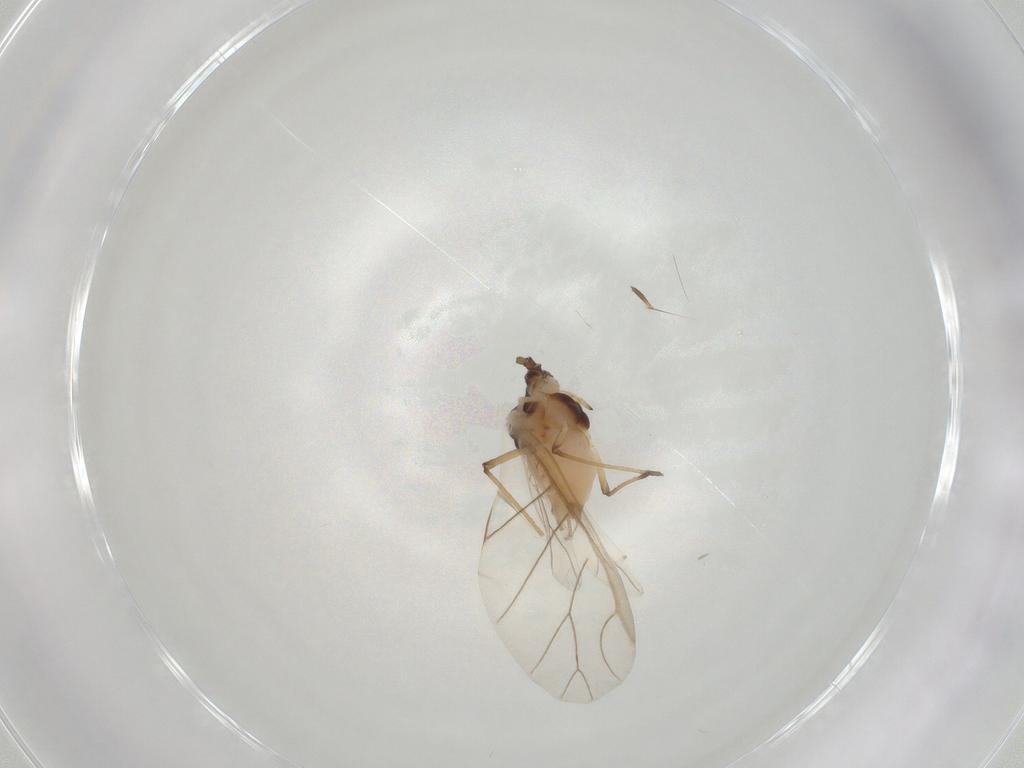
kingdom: Animalia
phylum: Arthropoda
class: Insecta
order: Hemiptera
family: Aphididae
